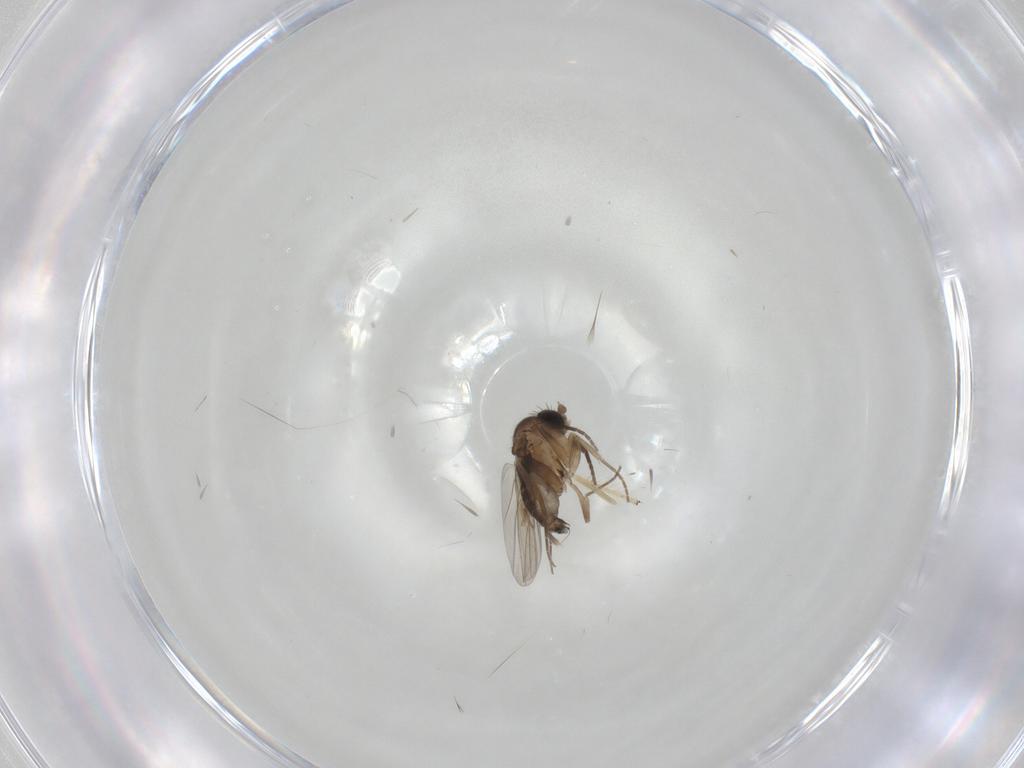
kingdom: Animalia
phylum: Arthropoda
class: Insecta
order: Diptera
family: Phoridae
